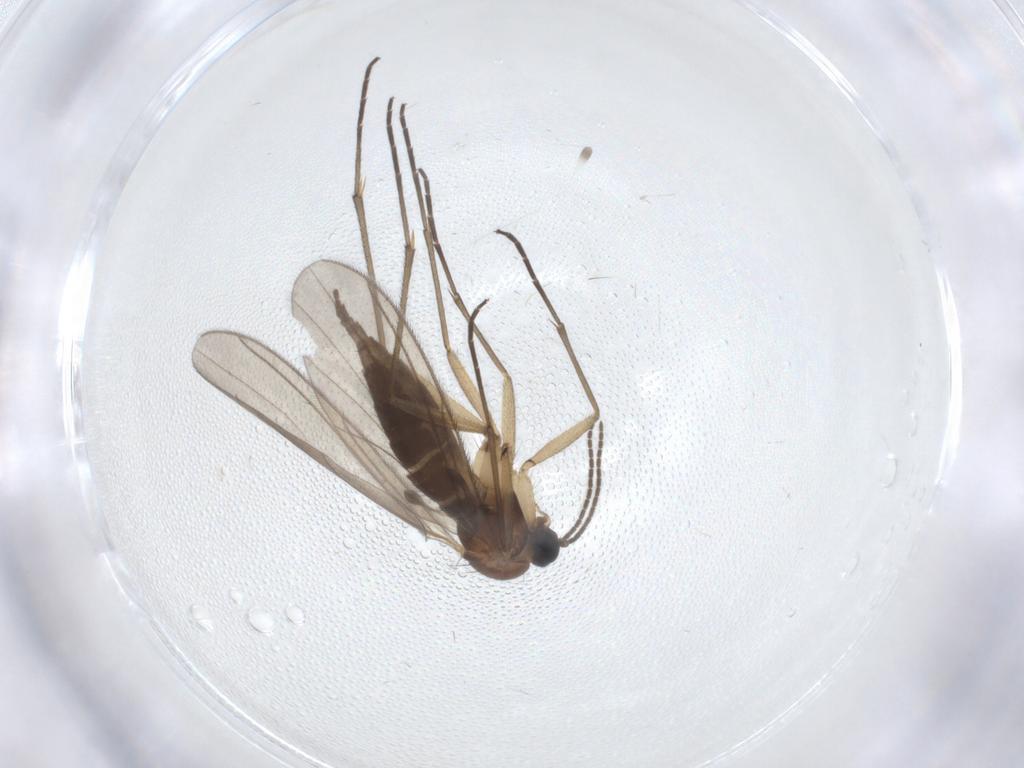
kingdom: Animalia
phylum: Arthropoda
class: Insecta
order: Diptera
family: Sciaridae
